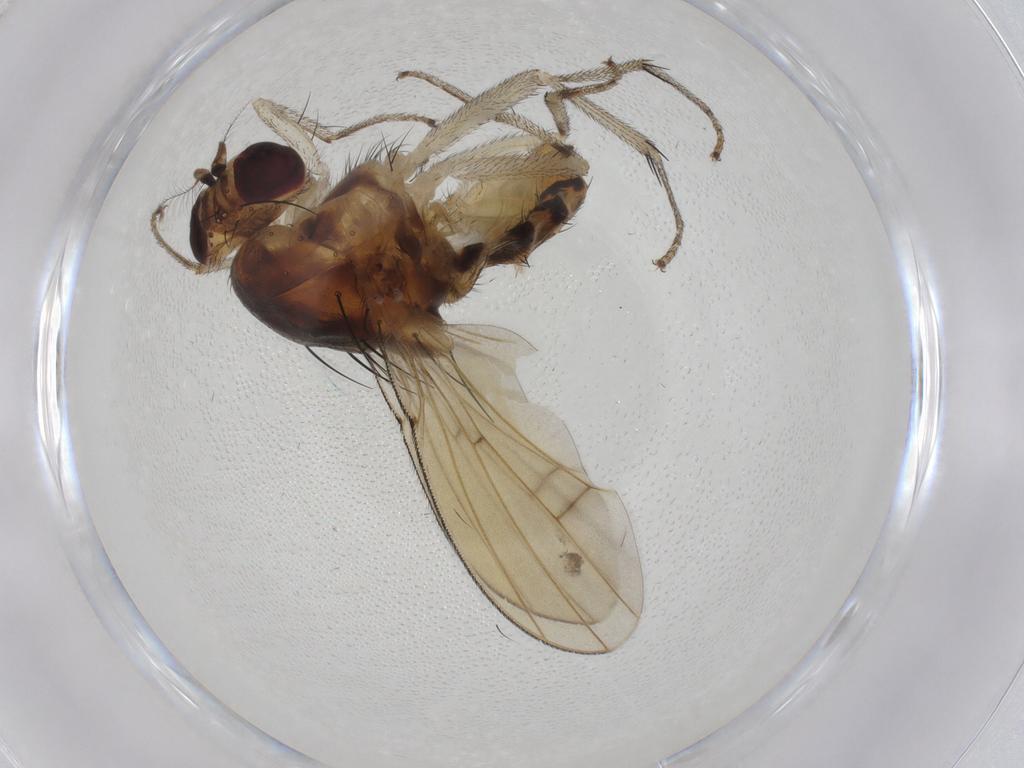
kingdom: Animalia
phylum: Arthropoda
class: Insecta
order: Diptera
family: Lauxaniidae
